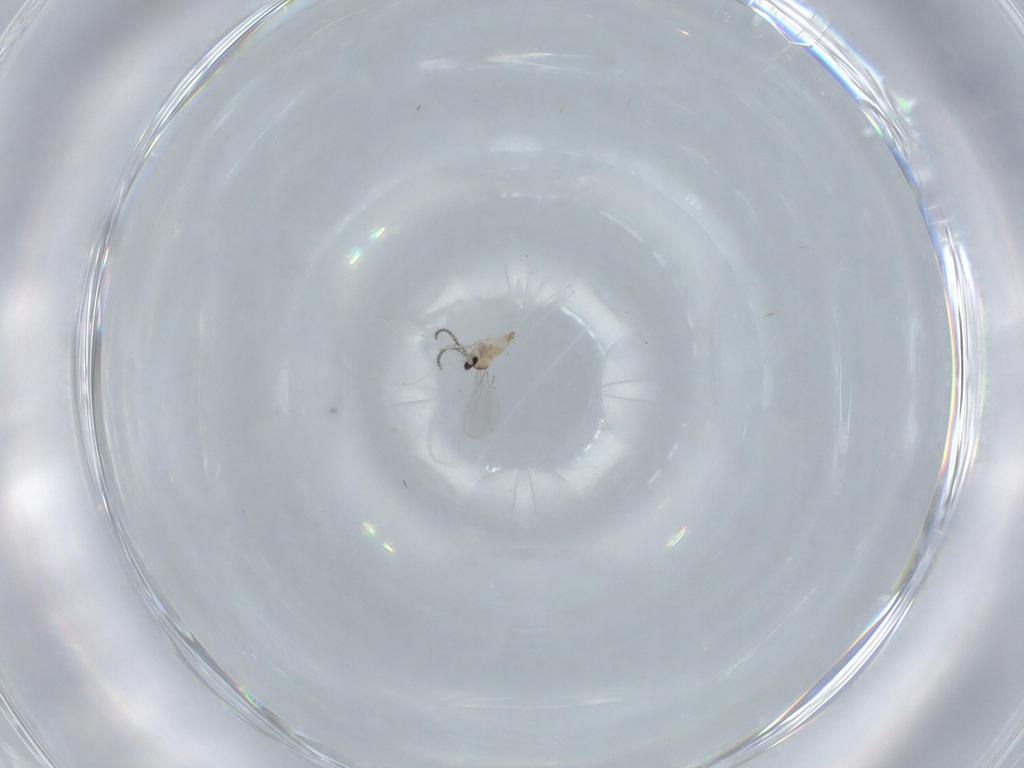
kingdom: Animalia
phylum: Arthropoda
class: Insecta
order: Diptera
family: Cecidomyiidae
